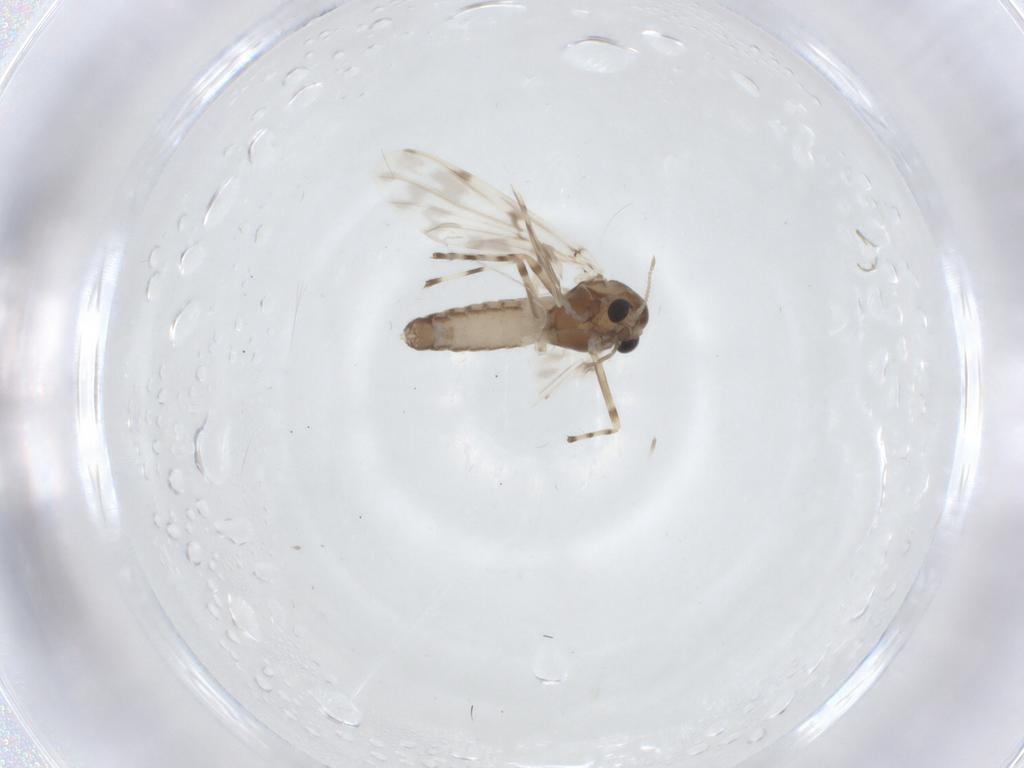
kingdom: Animalia
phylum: Arthropoda
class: Insecta
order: Diptera
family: Chironomidae
